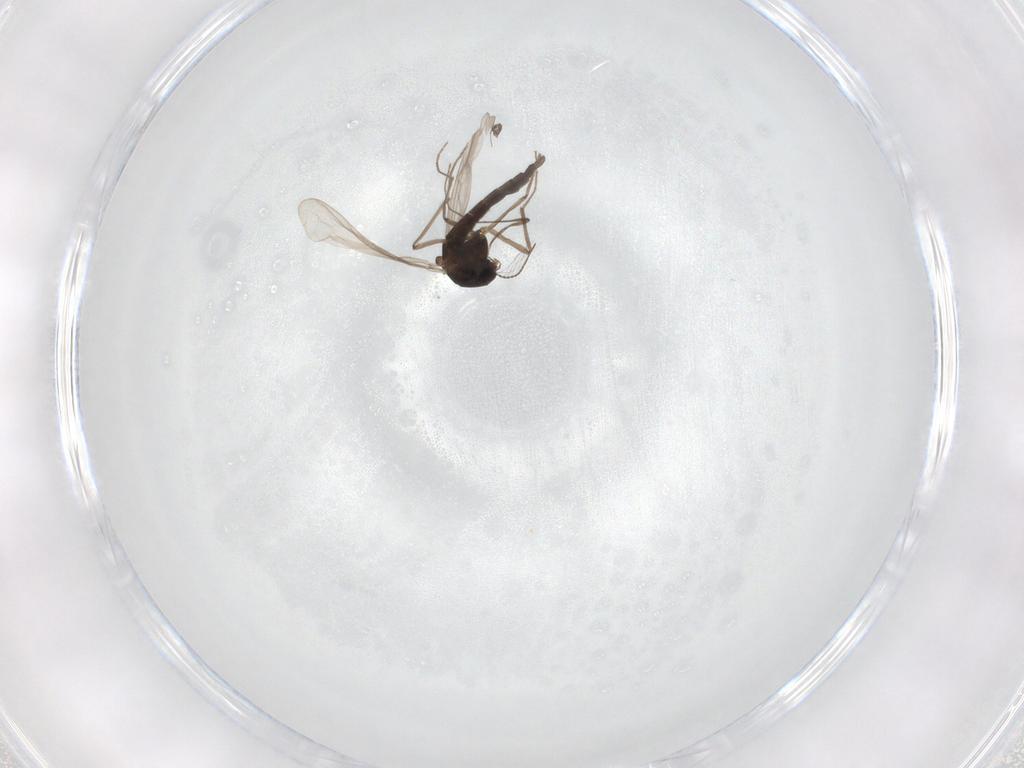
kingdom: Animalia
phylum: Arthropoda
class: Insecta
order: Diptera
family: Chironomidae
